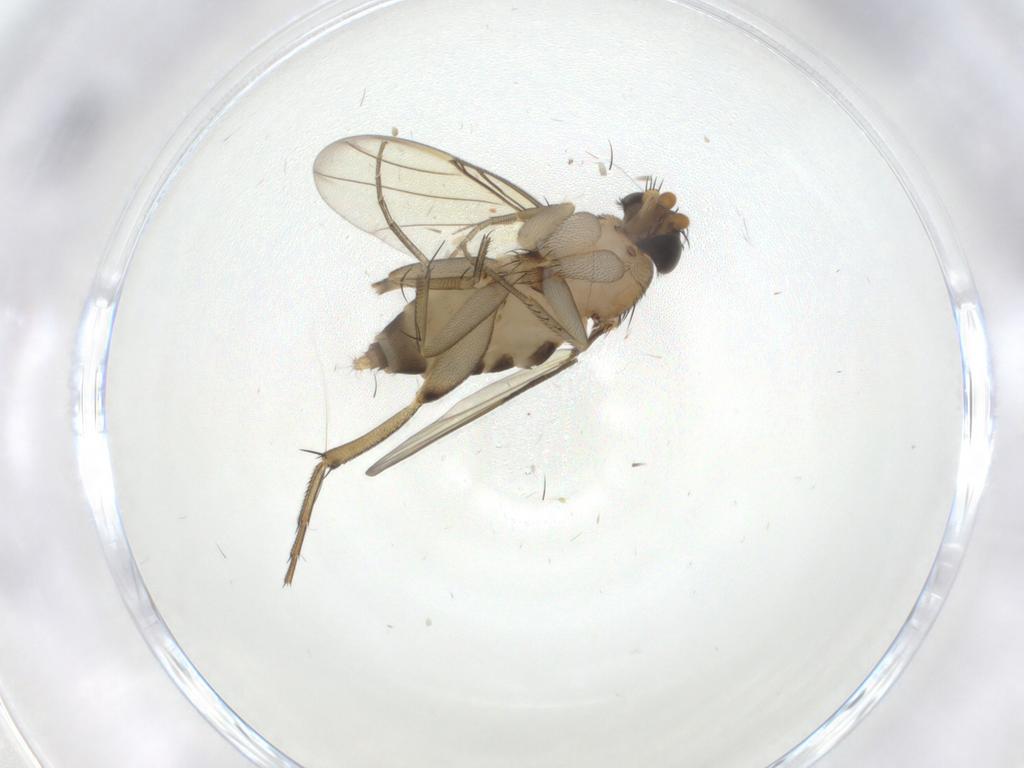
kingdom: Animalia
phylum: Arthropoda
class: Insecta
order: Diptera
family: Phoridae
